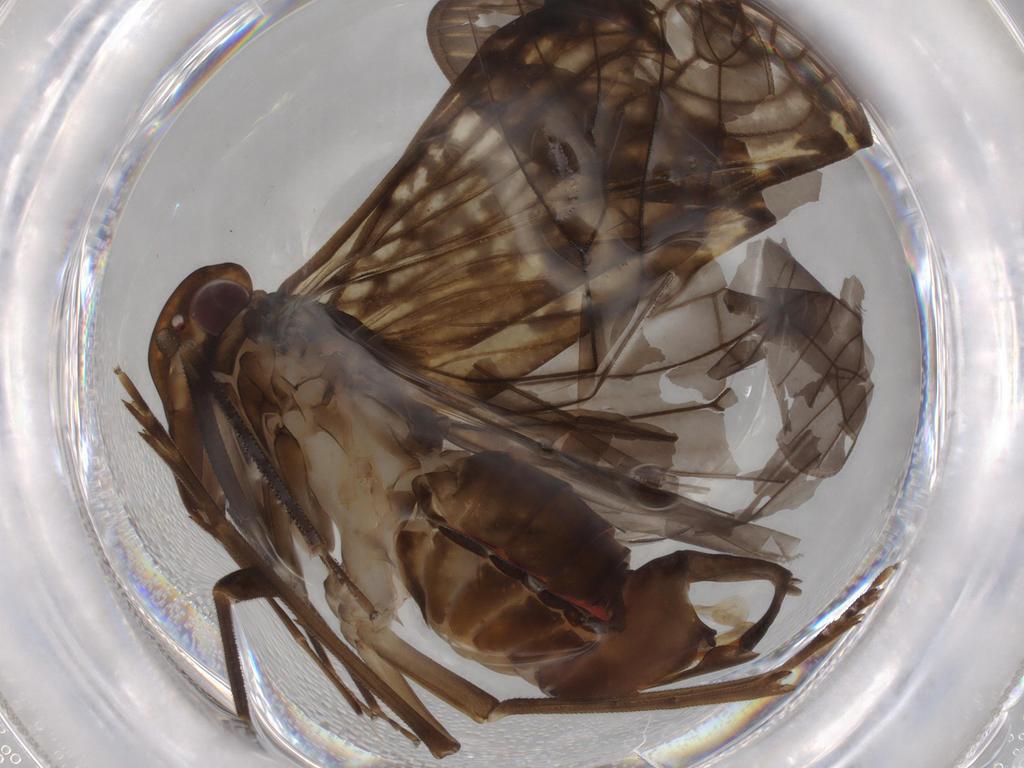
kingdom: Animalia
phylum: Arthropoda
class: Insecta
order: Hemiptera
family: Cixiidae
